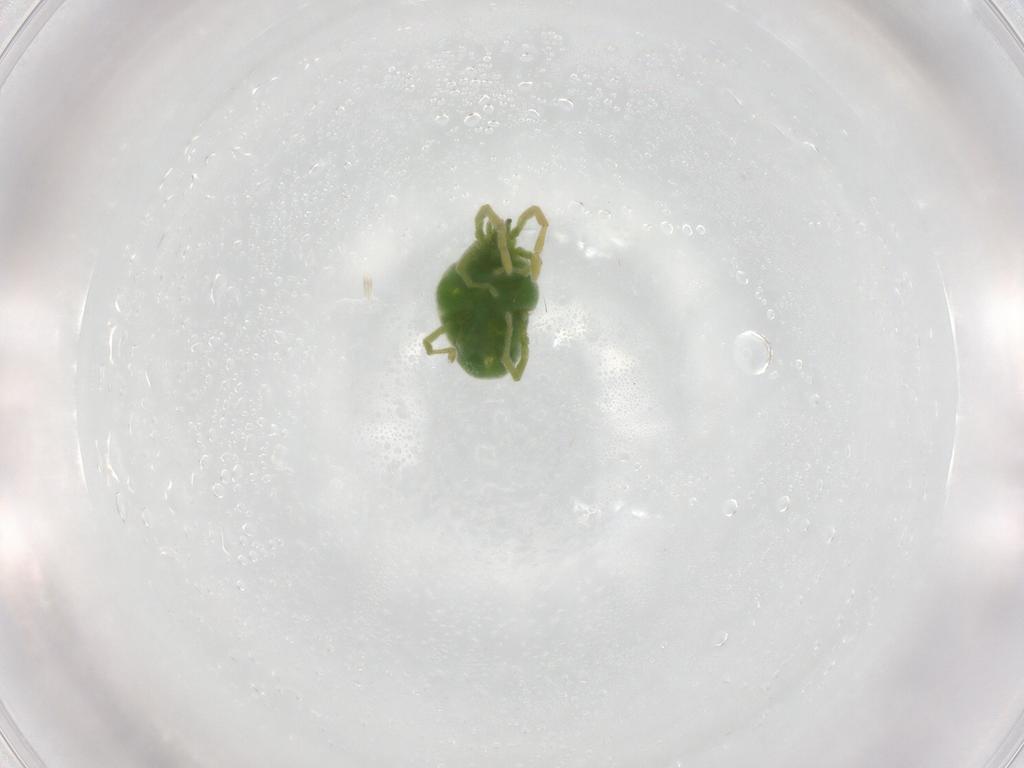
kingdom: Animalia
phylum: Arthropoda
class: Arachnida
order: Trombidiformes
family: Erythraeidae
